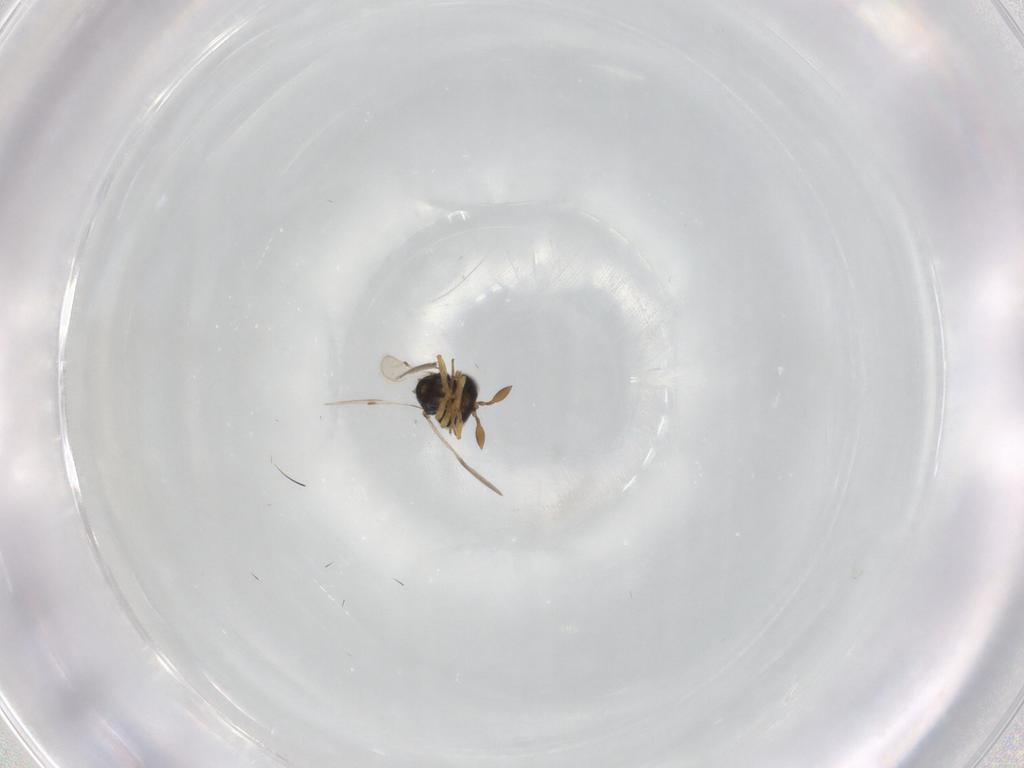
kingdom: Animalia
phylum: Arthropoda
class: Insecta
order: Hymenoptera
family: Scelionidae
